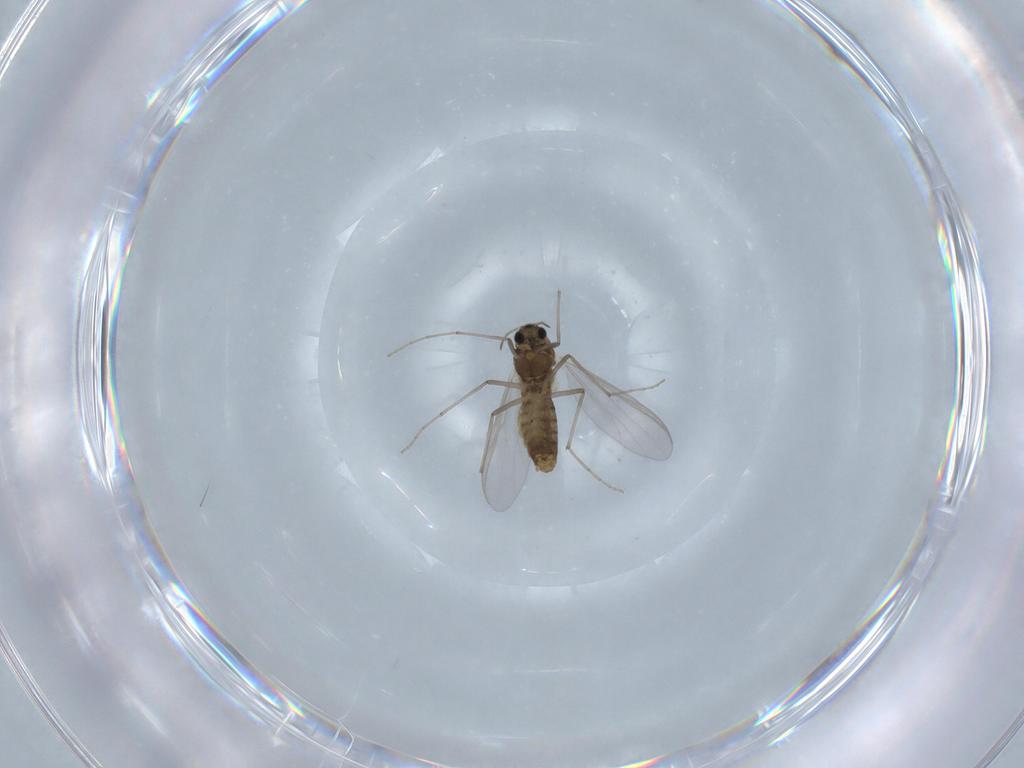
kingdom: Animalia
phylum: Arthropoda
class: Insecta
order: Diptera
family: Chironomidae
